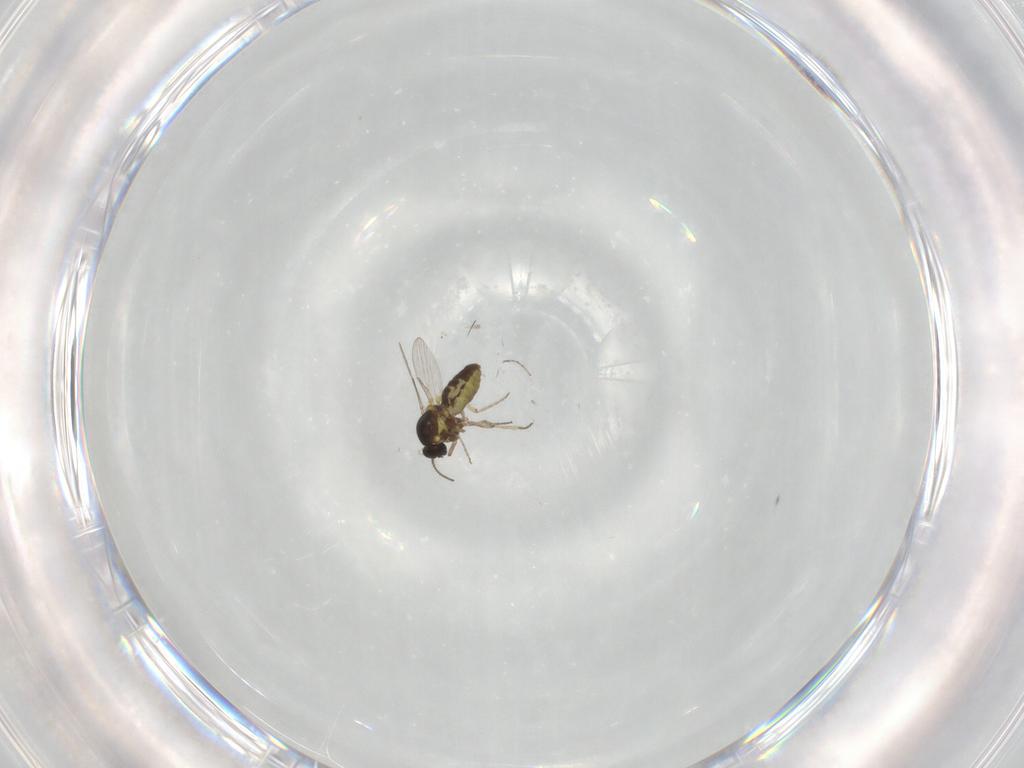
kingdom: Animalia
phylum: Arthropoda
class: Insecta
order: Diptera
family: Ceratopogonidae
